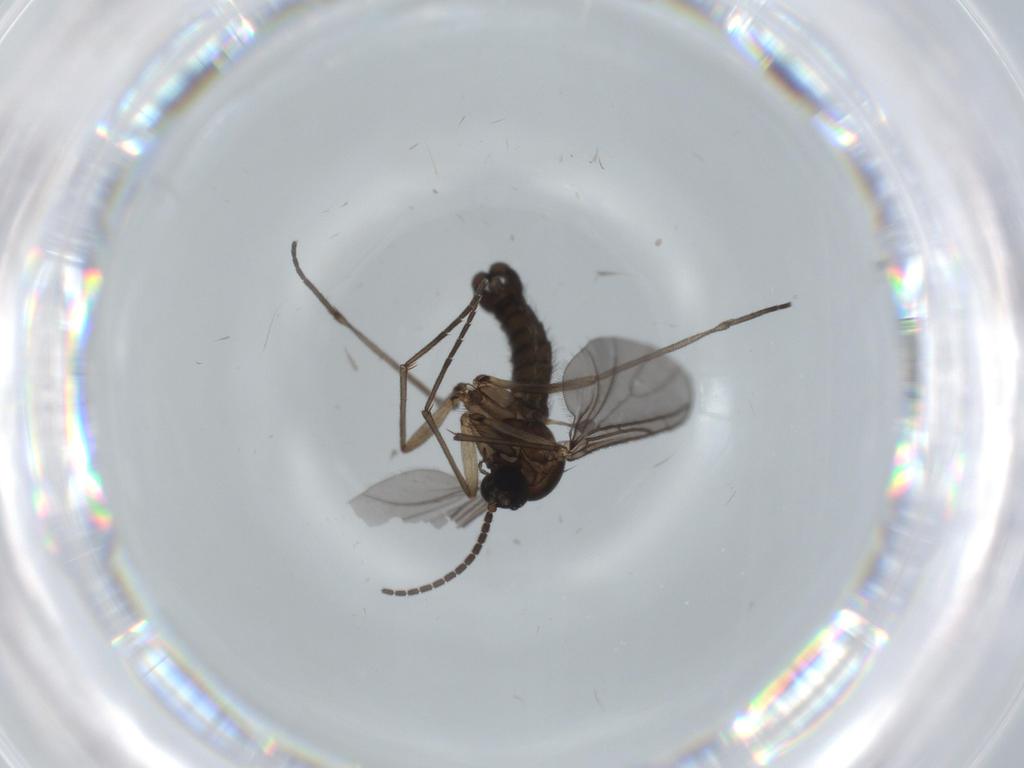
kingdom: Animalia
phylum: Arthropoda
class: Insecta
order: Diptera
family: Sciaridae
